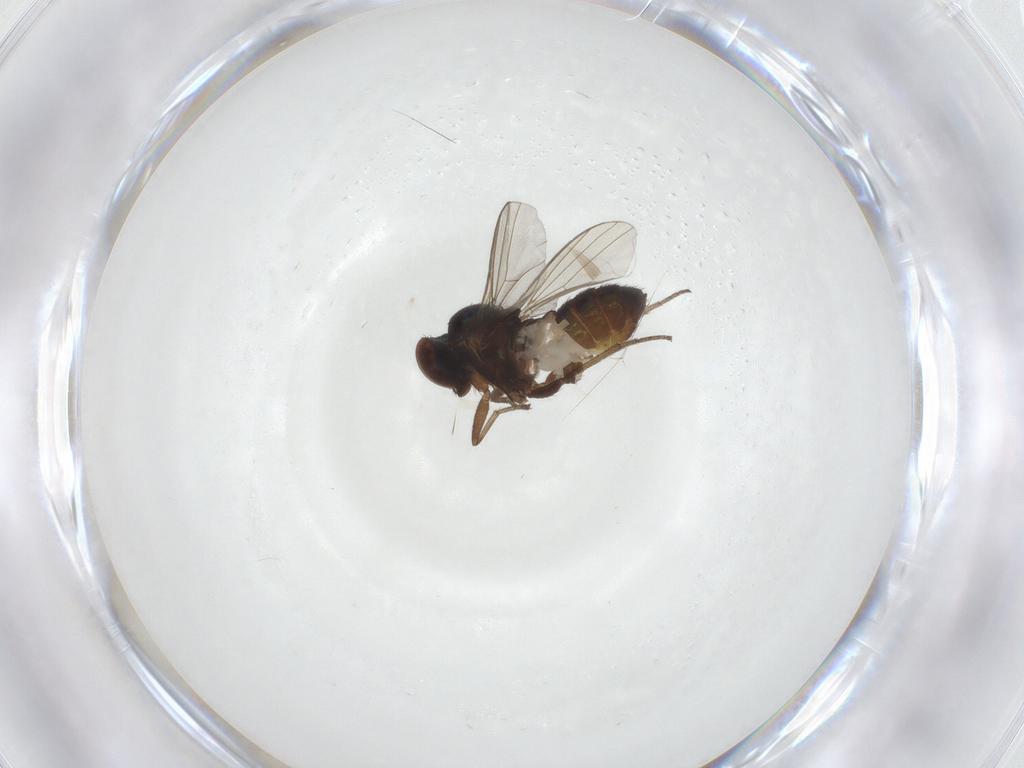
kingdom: Animalia
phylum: Arthropoda
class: Insecta
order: Diptera
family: Dolichopodidae
